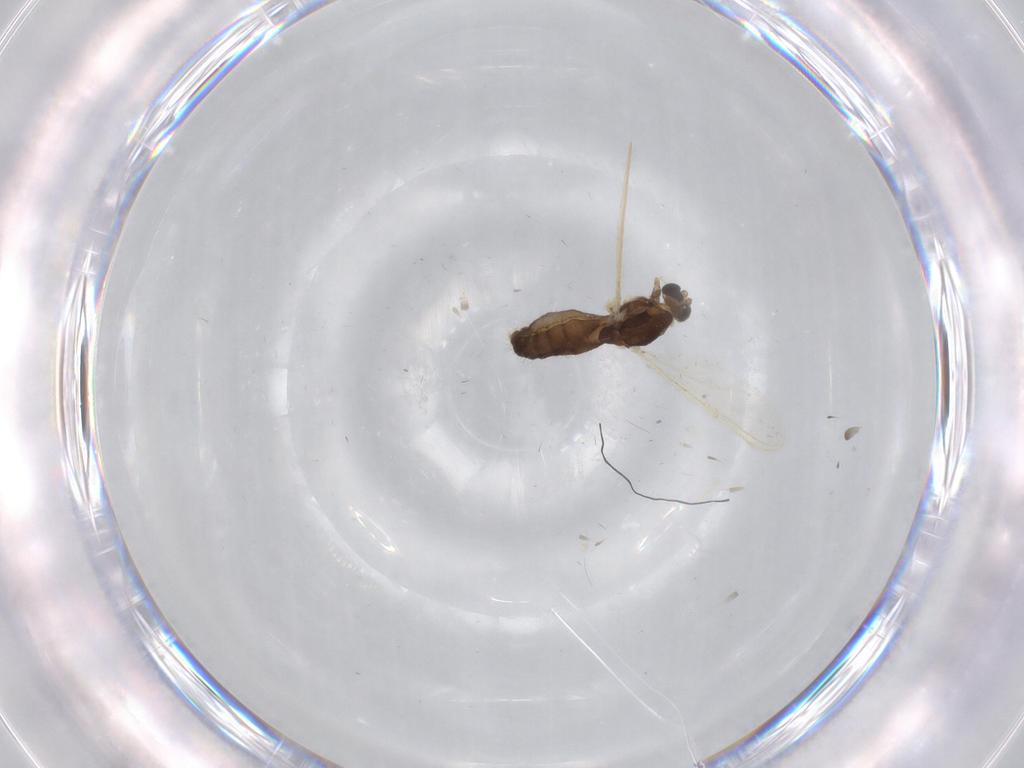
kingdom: Animalia
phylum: Arthropoda
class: Insecta
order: Diptera
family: Chironomidae
